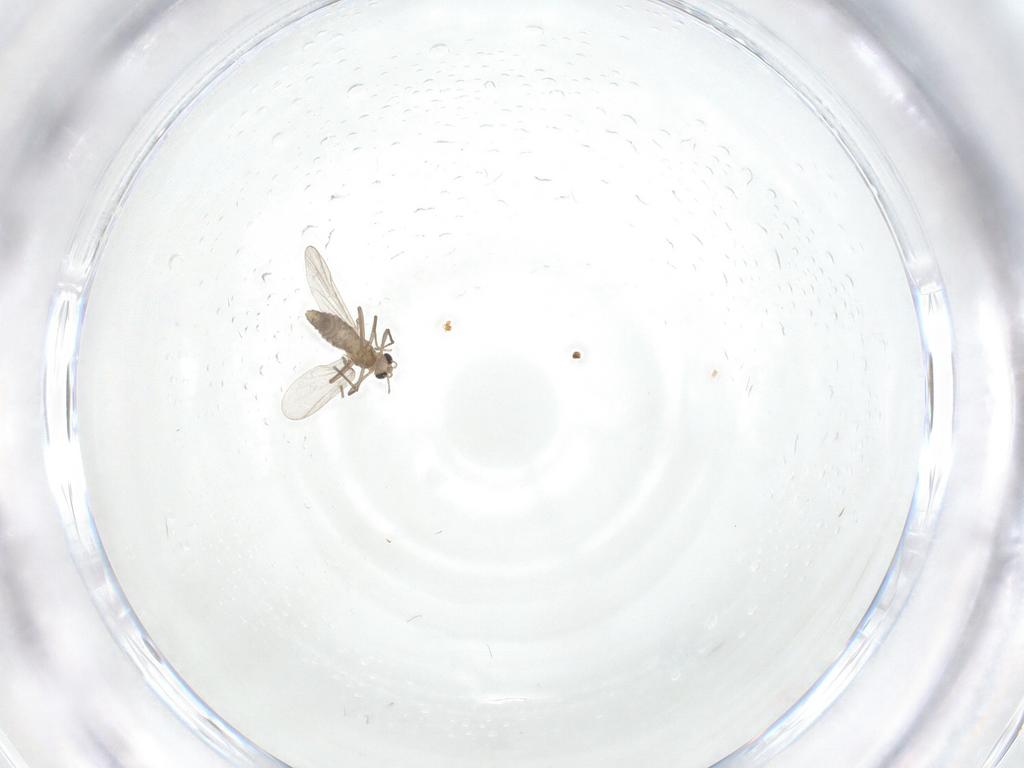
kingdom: Animalia
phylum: Arthropoda
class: Insecta
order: Diptera
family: Chironomidae
